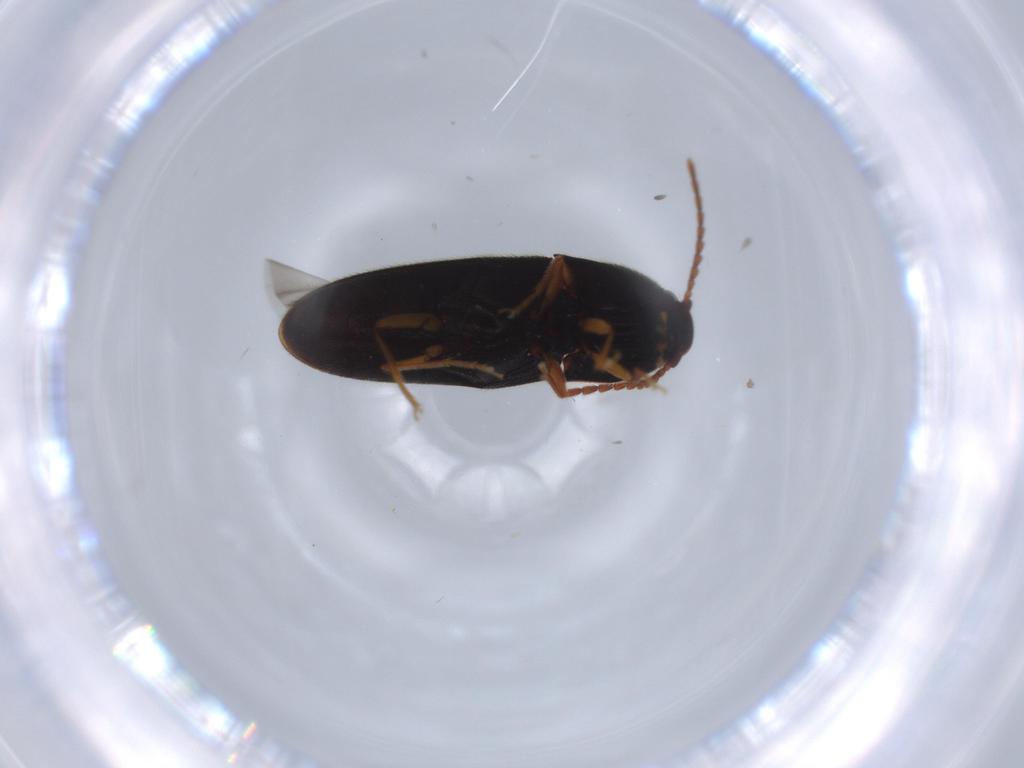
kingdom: Animalia
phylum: Arthropoda
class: Insecta
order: Coleoptera
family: Elateridae
